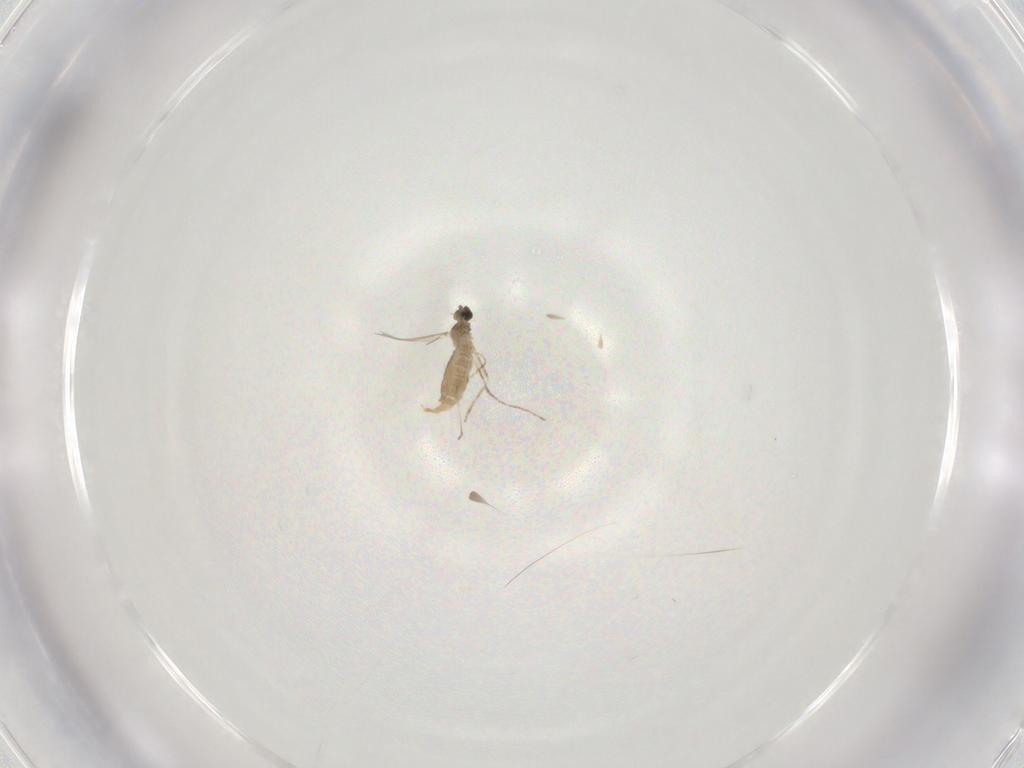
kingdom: Animalia
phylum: Arthropoda
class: Insecta
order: Diptera
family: Cecidomyiidae
